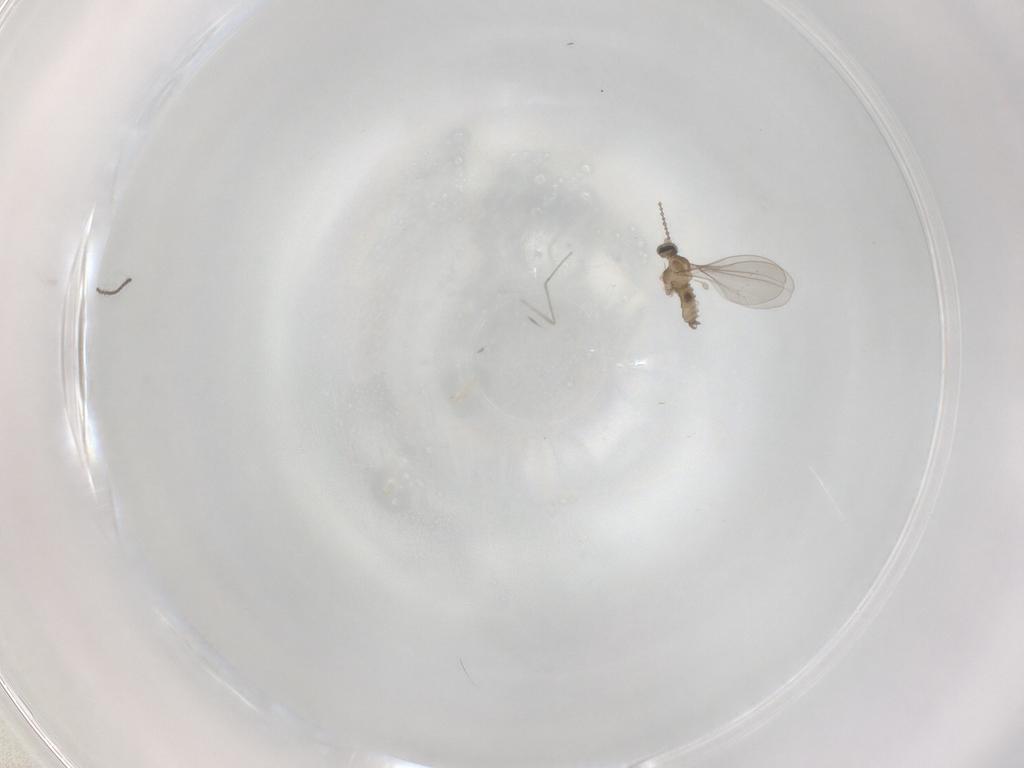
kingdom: Animalia
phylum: Arthropoda
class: Insecta
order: Diptera
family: Cecidomyiidae
